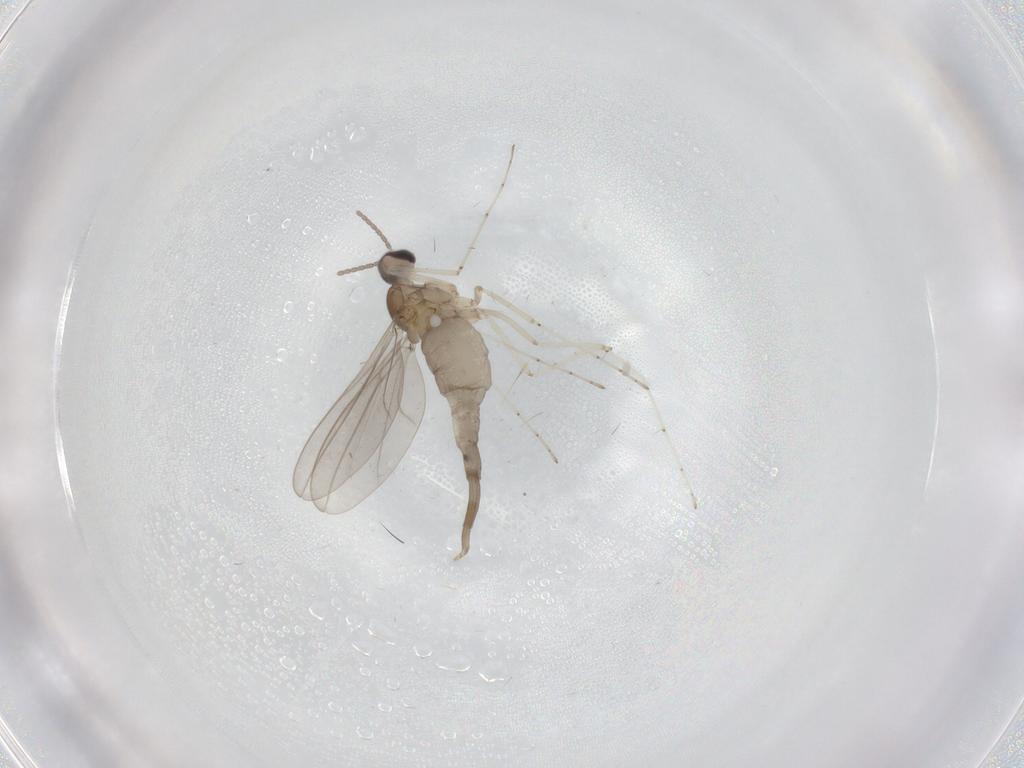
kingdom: Animalia
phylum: Arthropoda
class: Insecta
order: Diptera
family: Cecidomyiidae
